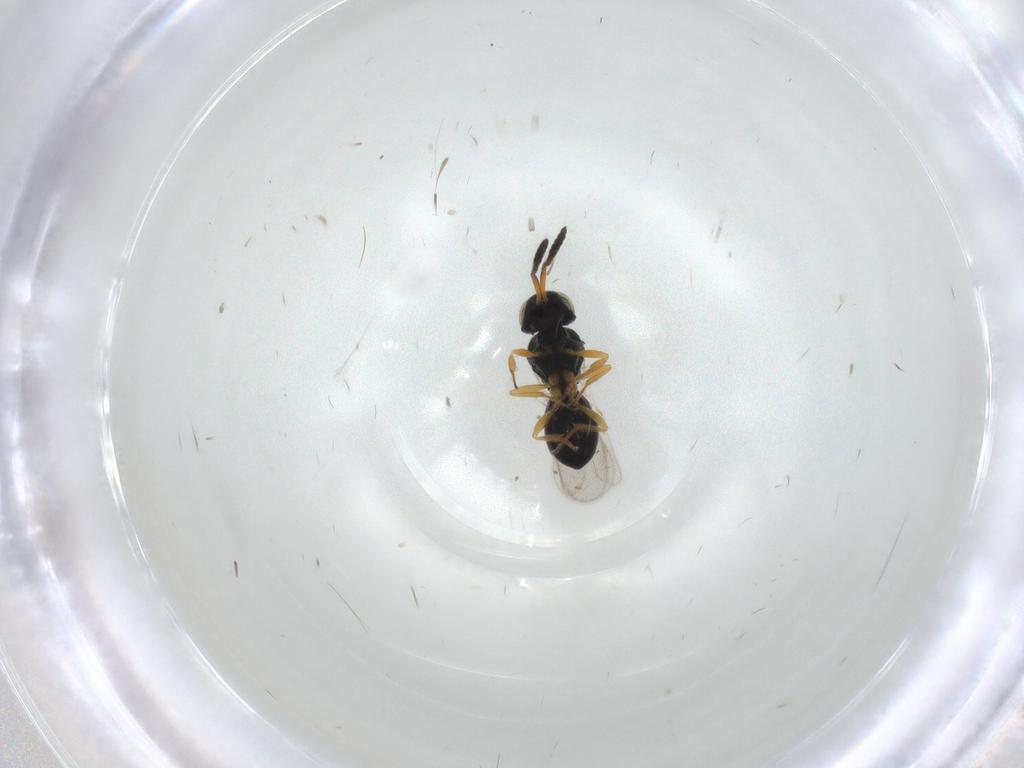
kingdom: Animalia
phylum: Arthropoda
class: Insecta
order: Hymenoptera
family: Scelionidae
